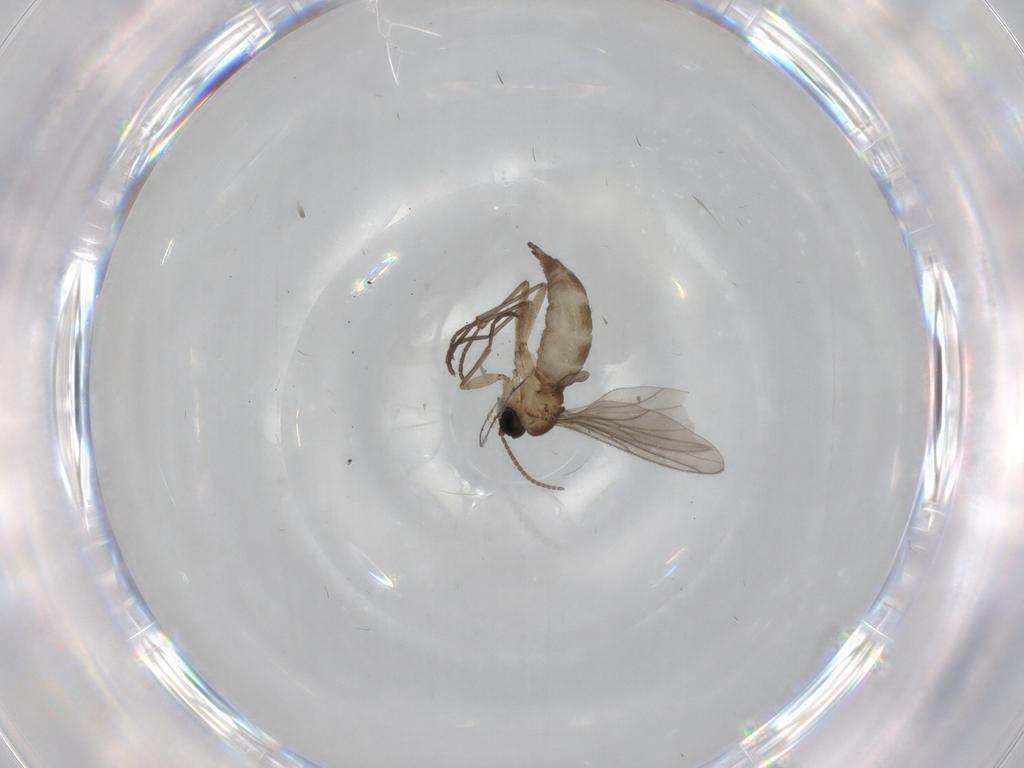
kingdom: Animalia
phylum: Arthropoda
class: Insecta
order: Diptera
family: Sciaridae
